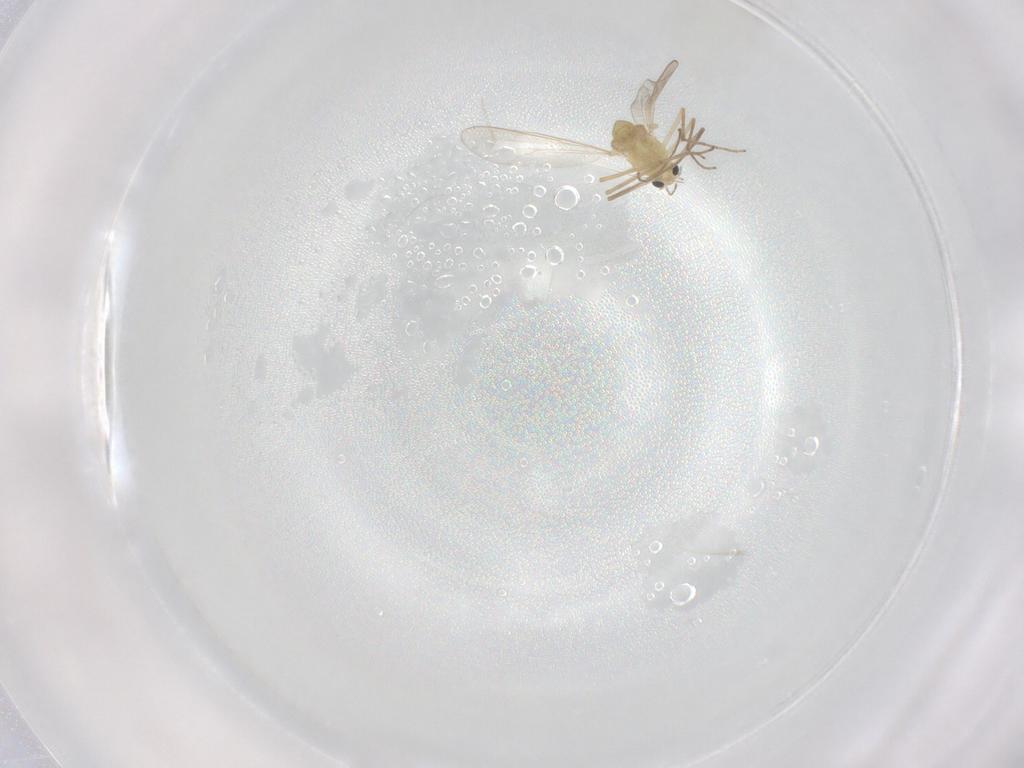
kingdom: Animalia
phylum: Arthropoda
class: Insecta
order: Diptera
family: Chironomidae
